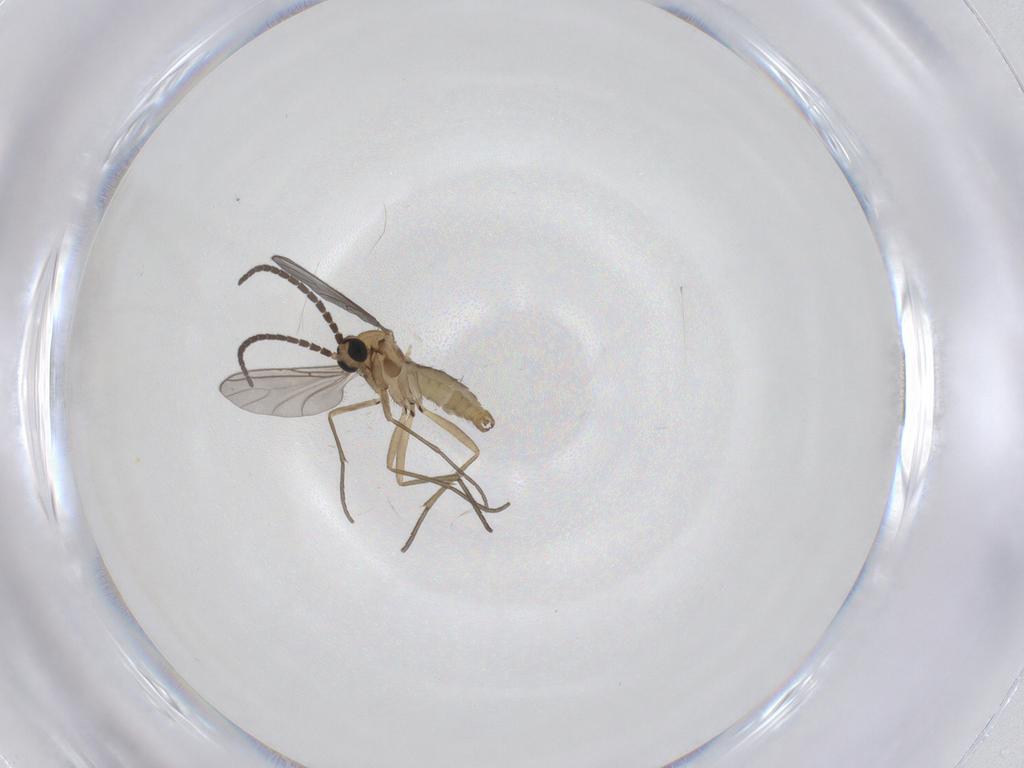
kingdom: Animalia
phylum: Arthropoda
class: Insecta
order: Diptera
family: Sciaridae
